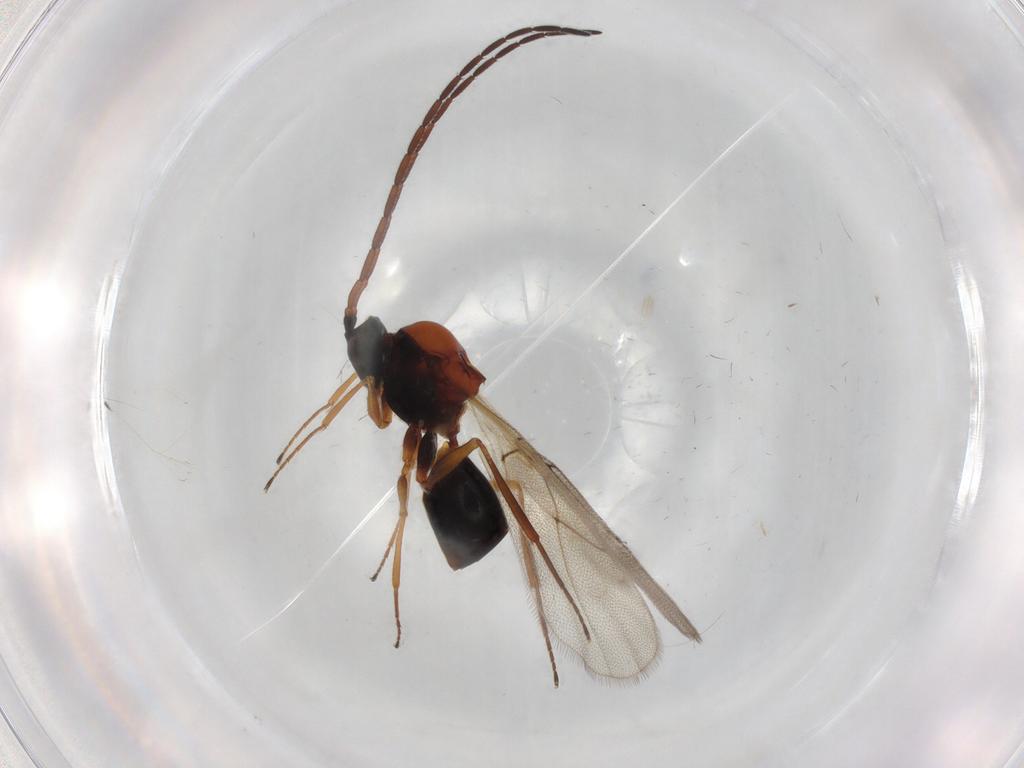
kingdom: Animalia
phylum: Arthropoda
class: Insecta
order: Hymenoptera
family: Figitidae
